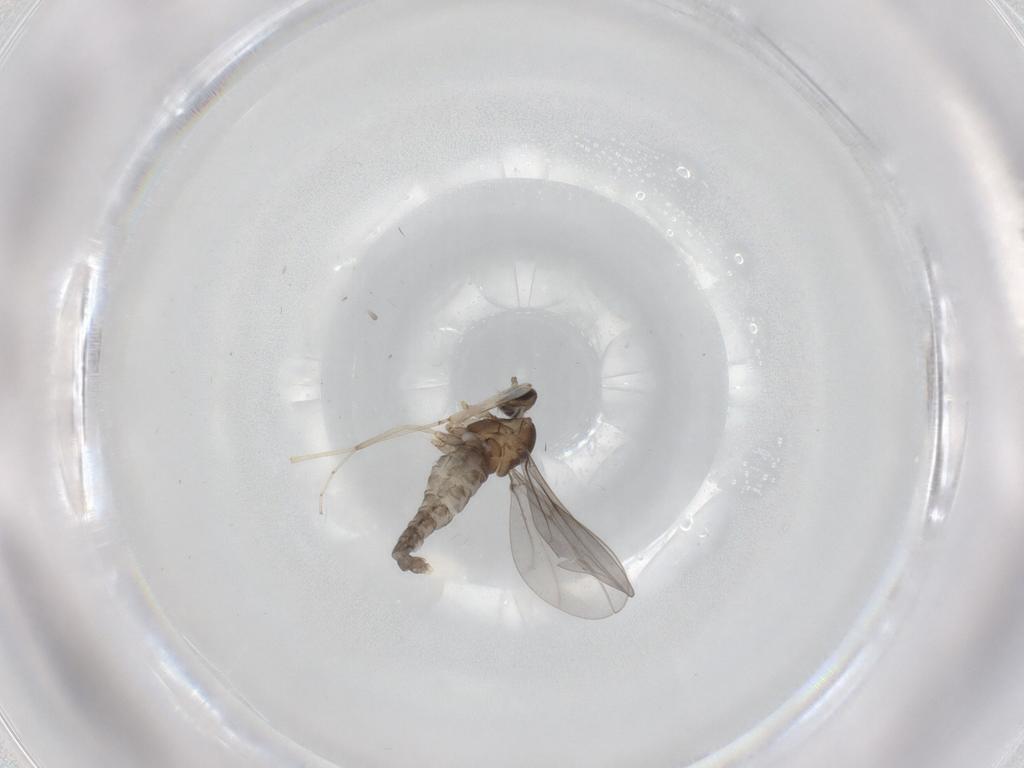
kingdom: Animalia
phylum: Arthropoda
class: Insecta
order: Diptera
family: Cecidomyiidae
